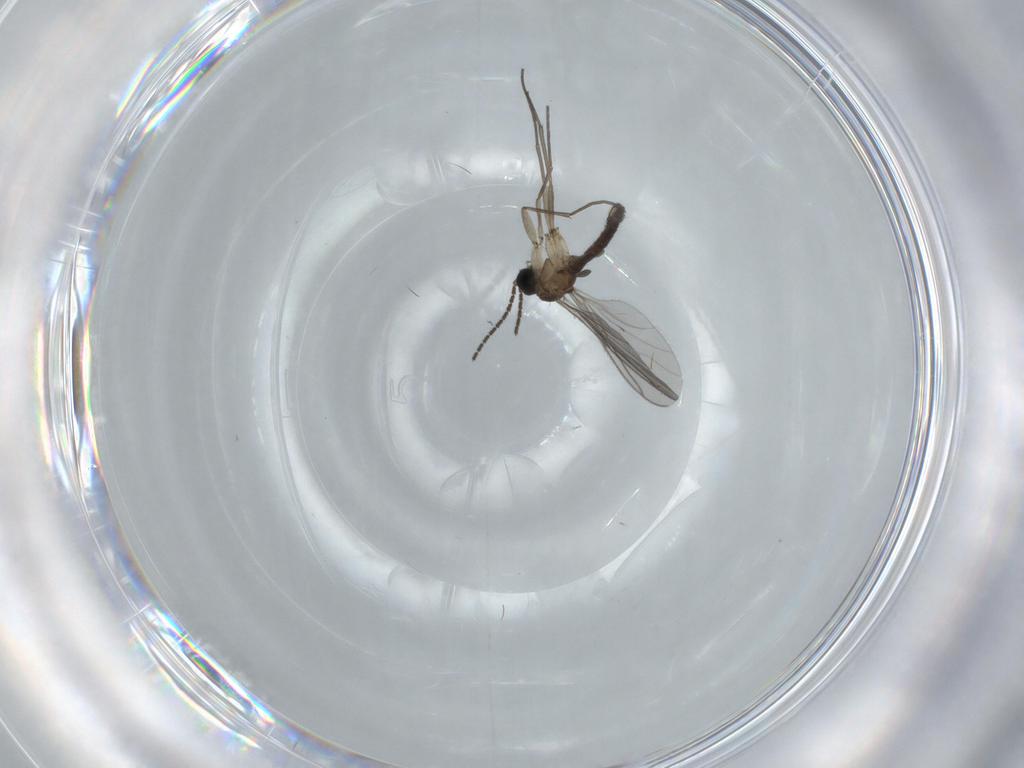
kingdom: Animalia
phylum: Arthropoda
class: Insecta
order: Diptera
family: Sciaridae
